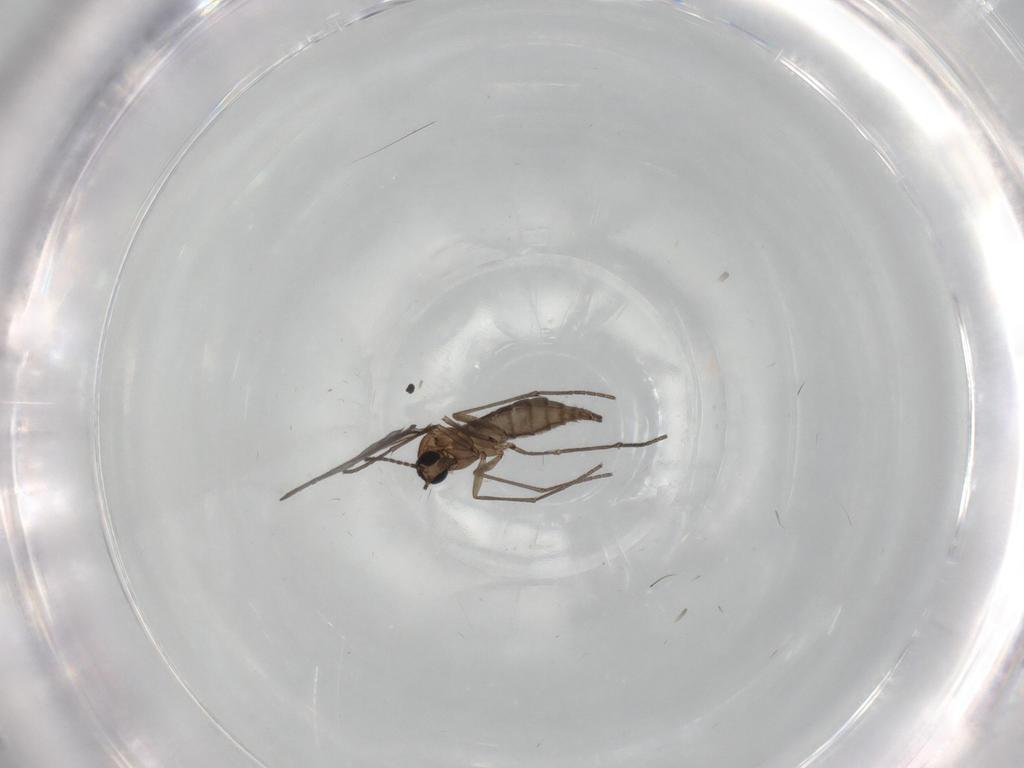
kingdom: Animalia
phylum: Arthropoda
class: Insecta
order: Diptera
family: Sciaridae
